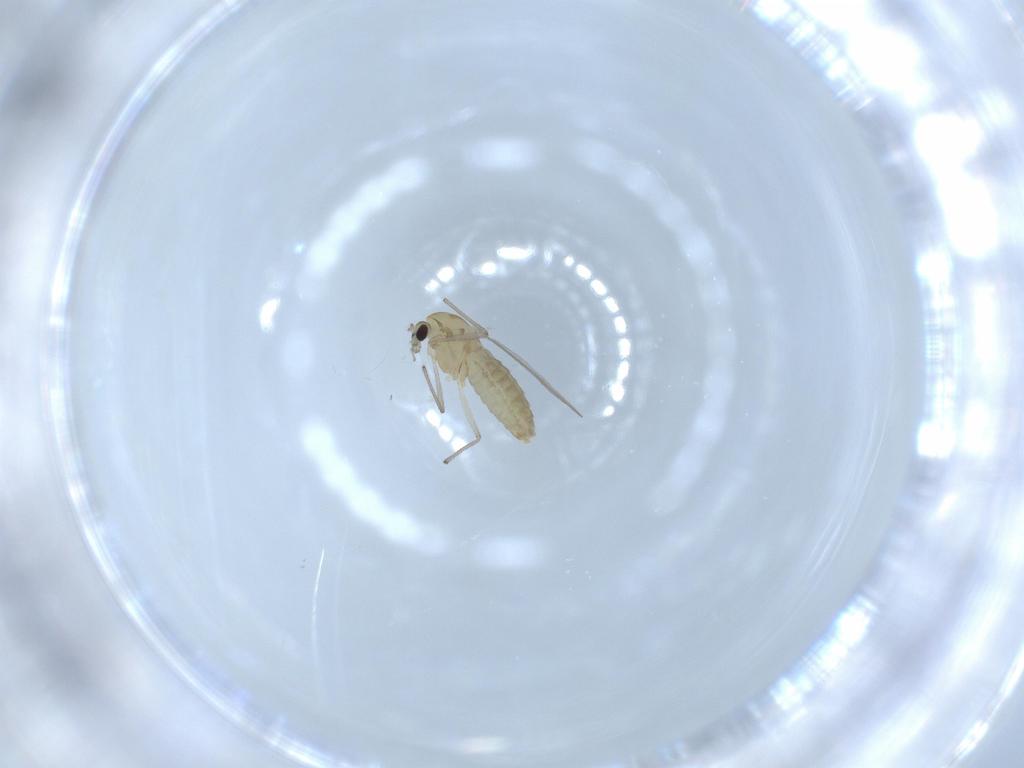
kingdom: Animalia
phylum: Arthropoda
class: Insecta
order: Diptera
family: Chironomidae
